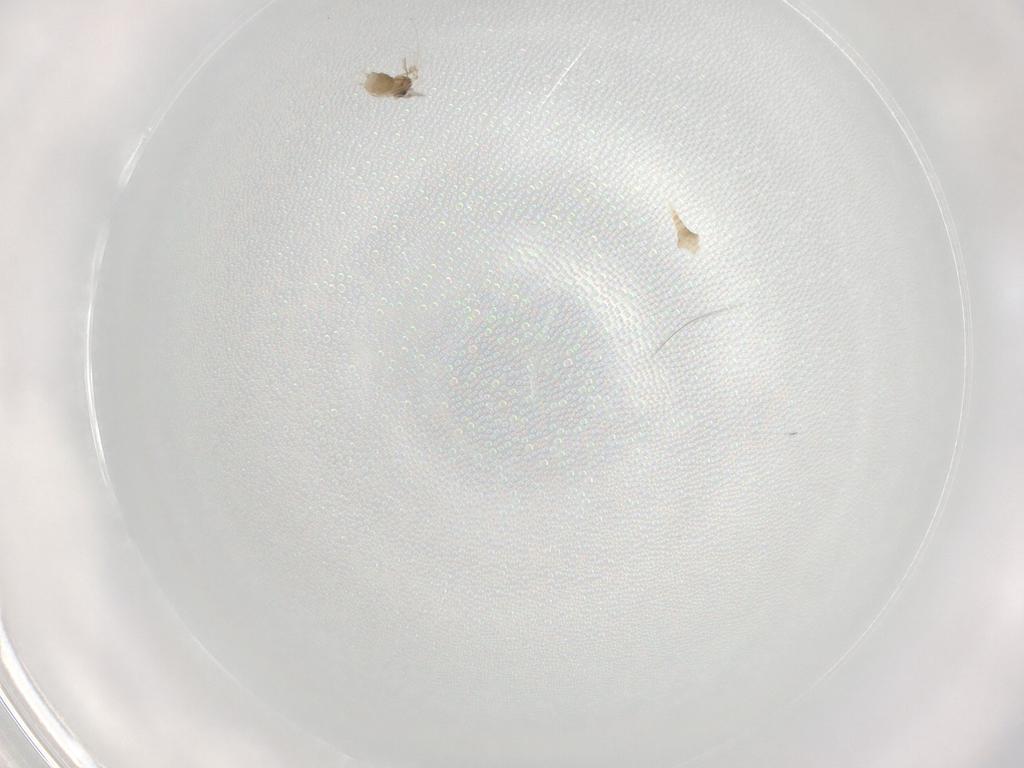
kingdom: Animalia
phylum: Arthropoda
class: Insecta
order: Diptera
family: Cecidomyiidae
